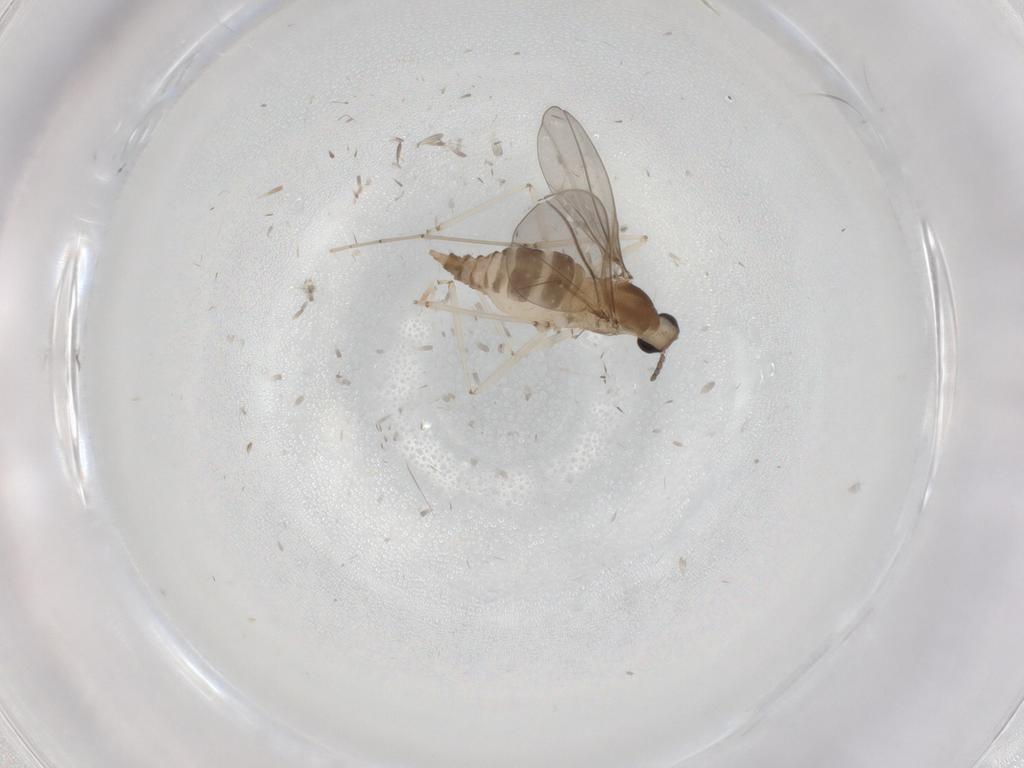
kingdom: Animalia
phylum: Arthropoda
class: Insecta
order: Diptera
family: Cecidomyiidae
